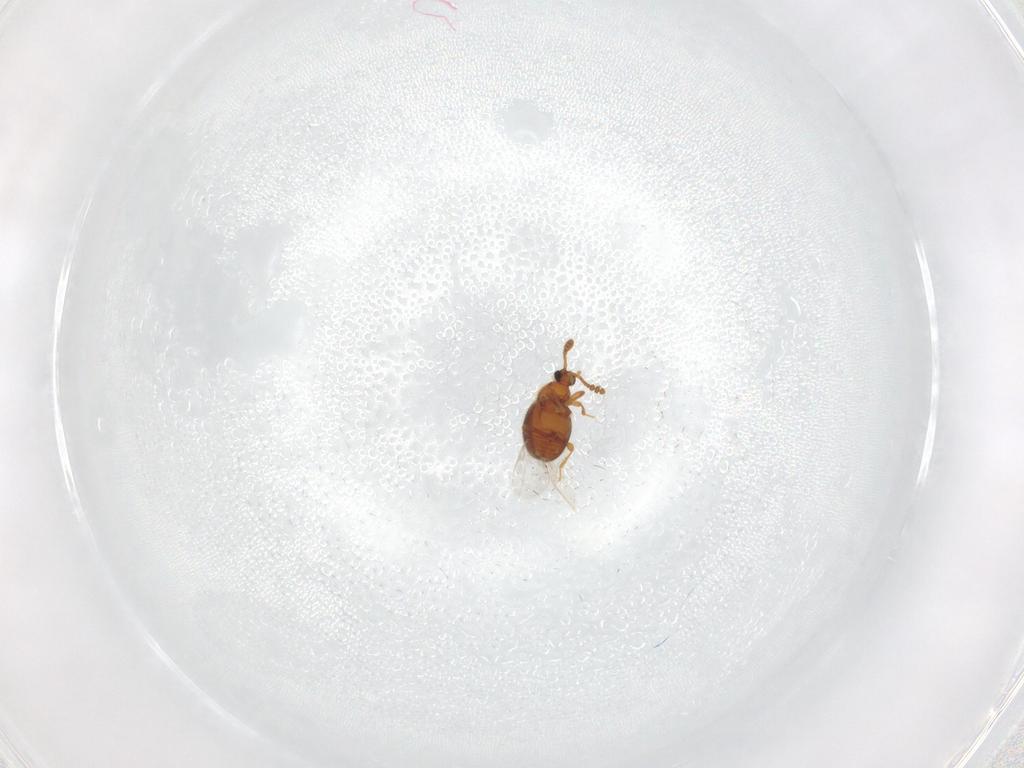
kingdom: Animalia
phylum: Arthropoda
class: Insecta
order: Coleoptera
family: Staphylinidae
